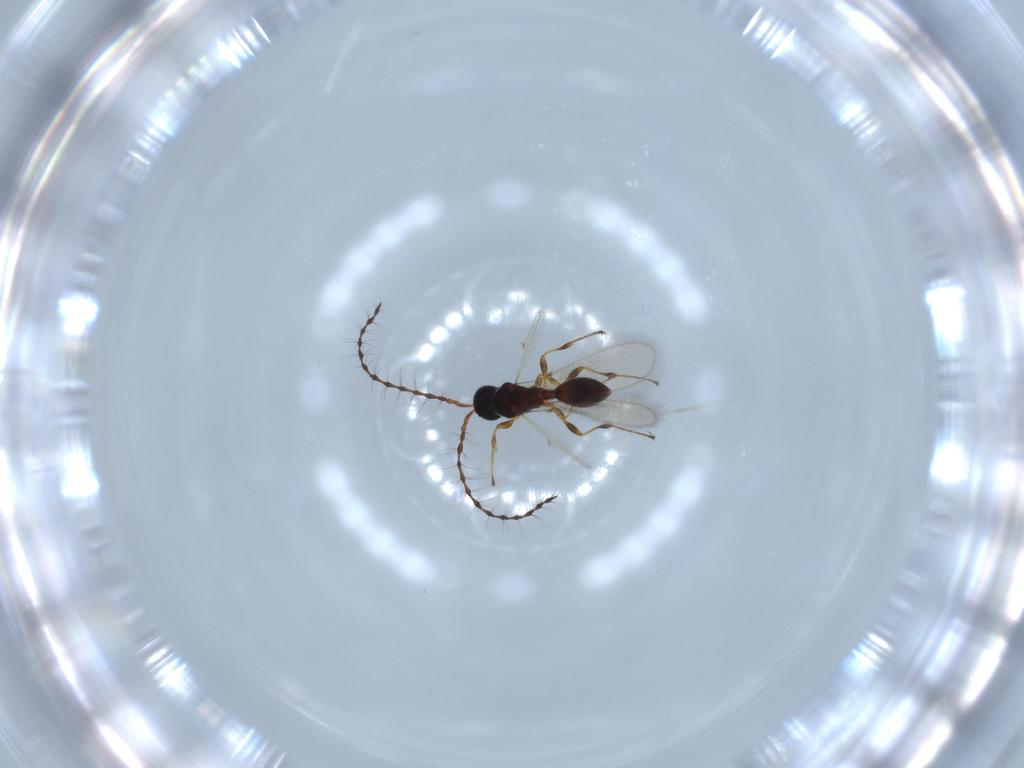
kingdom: Animalia
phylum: Arthropoda
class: Insecta
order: Hymenoptera
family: Diapriidae
